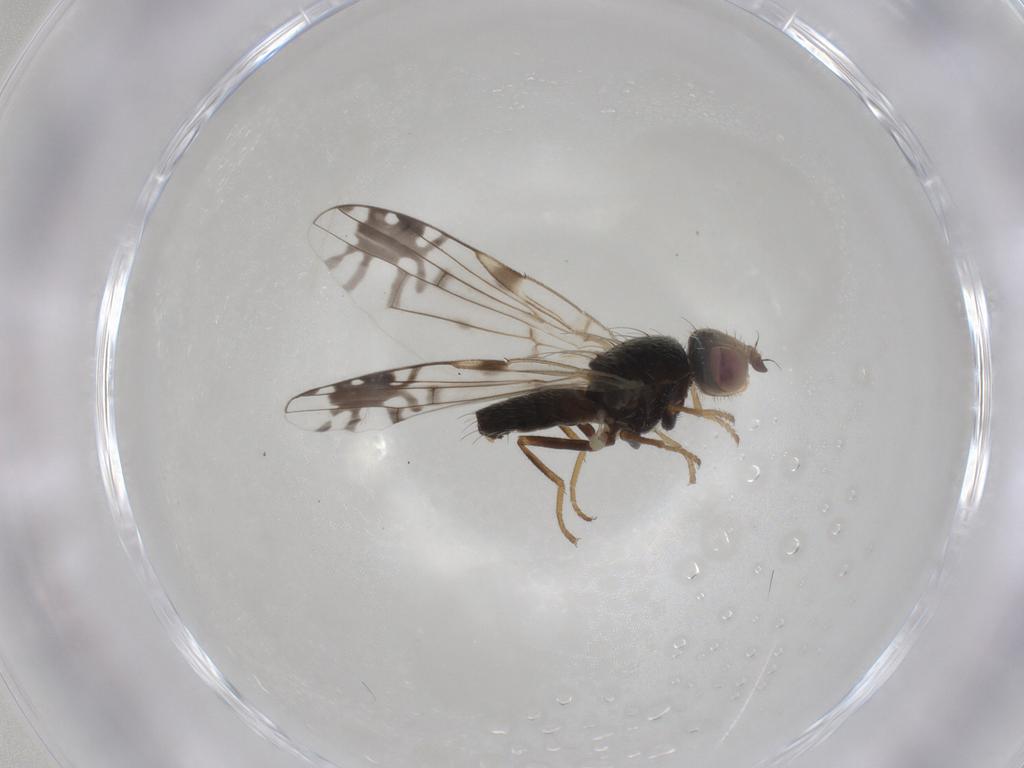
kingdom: Animalia
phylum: Arthropoda
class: Insecta
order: Diptera
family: Tephritidae
